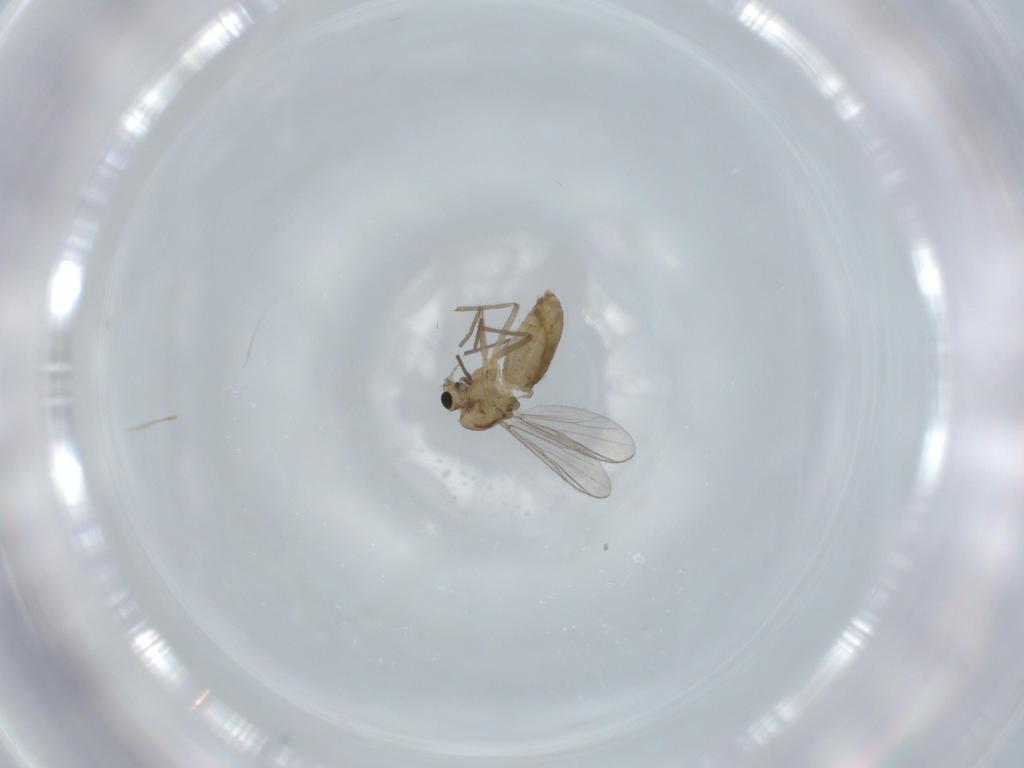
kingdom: Animalia
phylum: Arthropoda
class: Insecta
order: Diptera
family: Chironomidae
